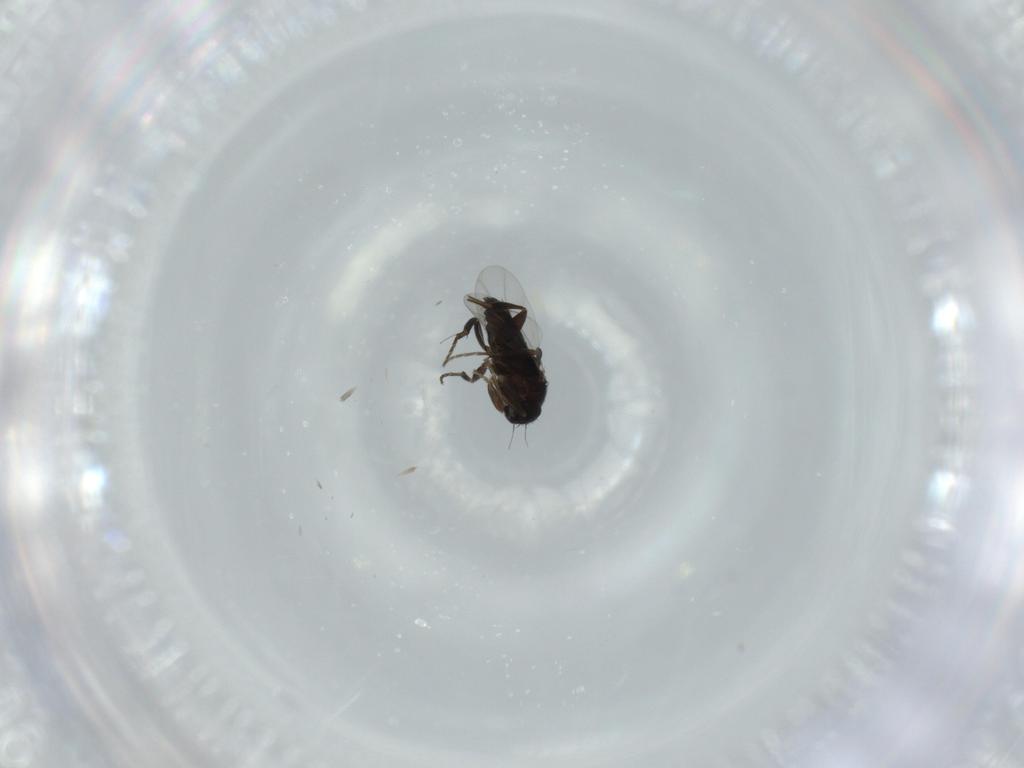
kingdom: Animalia
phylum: Arthropoda
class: Insecta
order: Diptera
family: Phoridae
